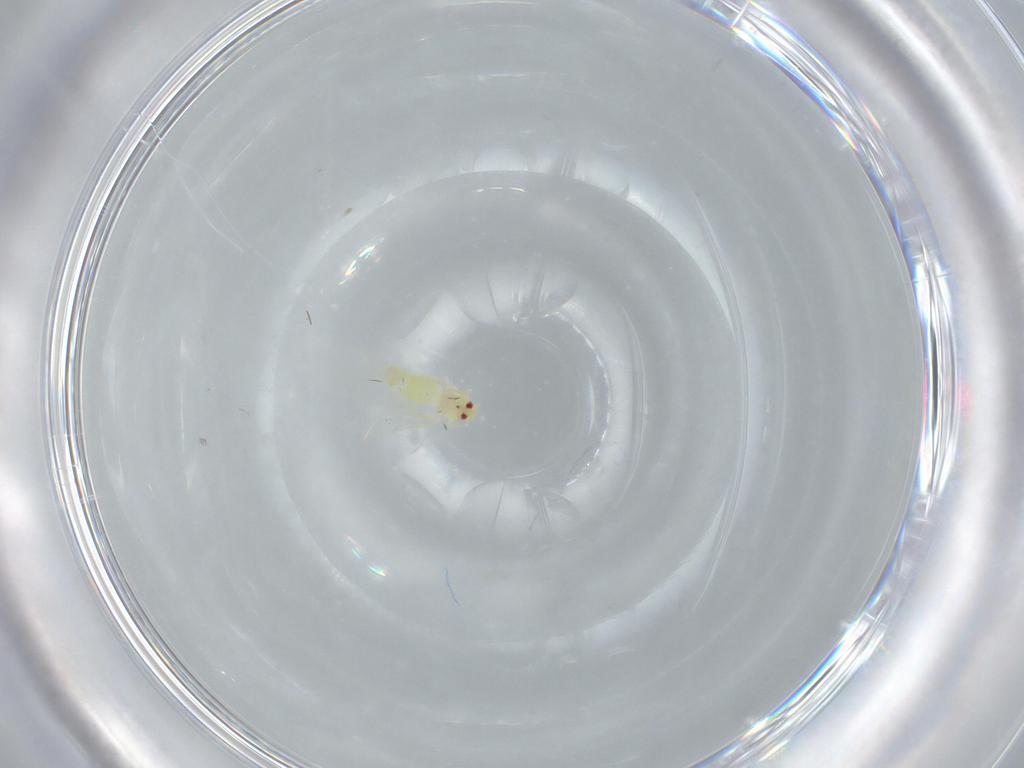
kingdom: Animalia
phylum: Arthropoda
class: Insecta
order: Hemiptera
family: Aleyrodidae
